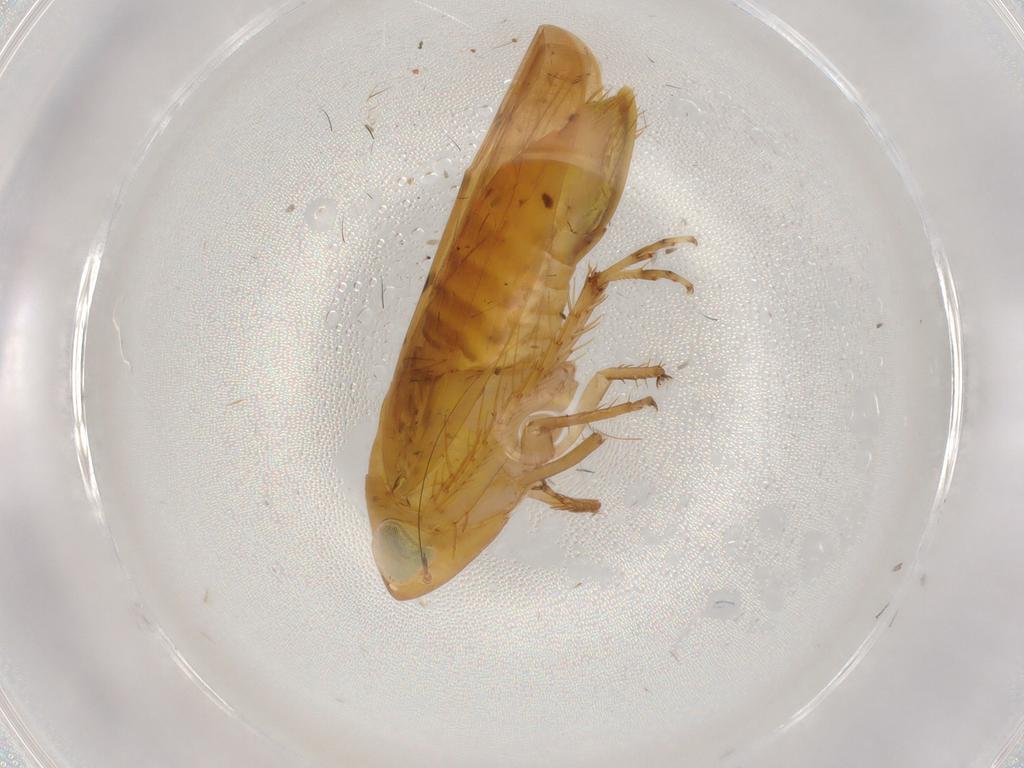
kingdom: Animalia
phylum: Arthropoda
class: Insecta
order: Hemiptera
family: Cicadellidae
